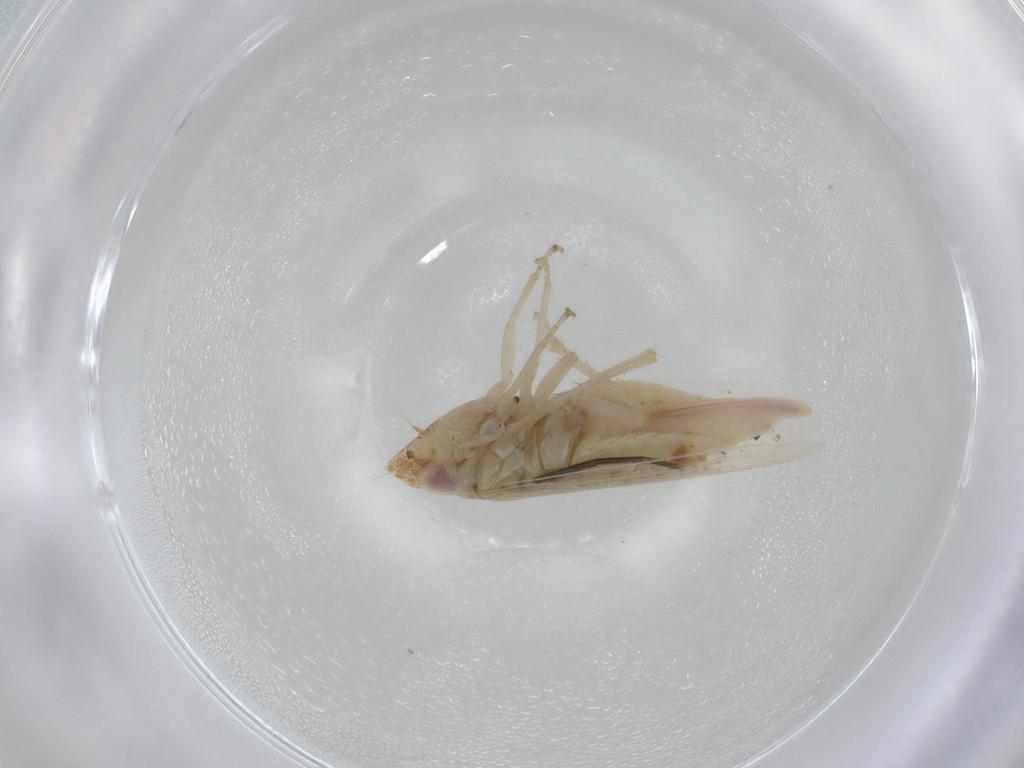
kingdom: Animalia
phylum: Arthropoda
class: Insecta
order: Hemiptera
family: Cicadellidae
